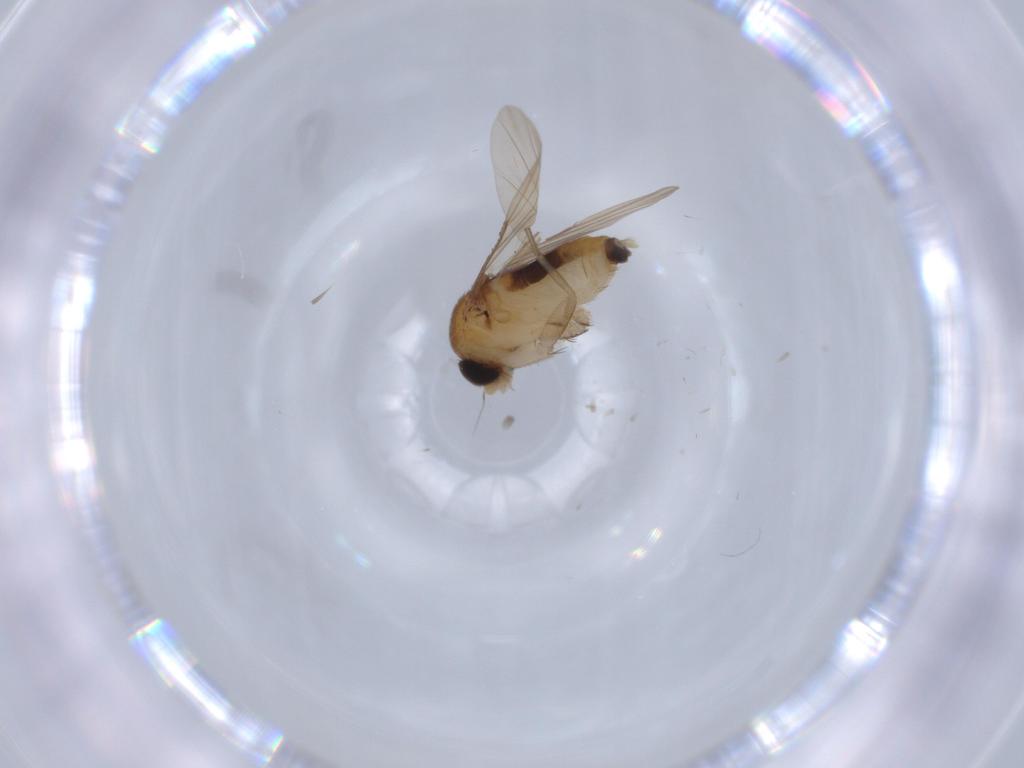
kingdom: Animalia
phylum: Arthropoda
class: Insecta
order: Diptera
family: Phoridae
